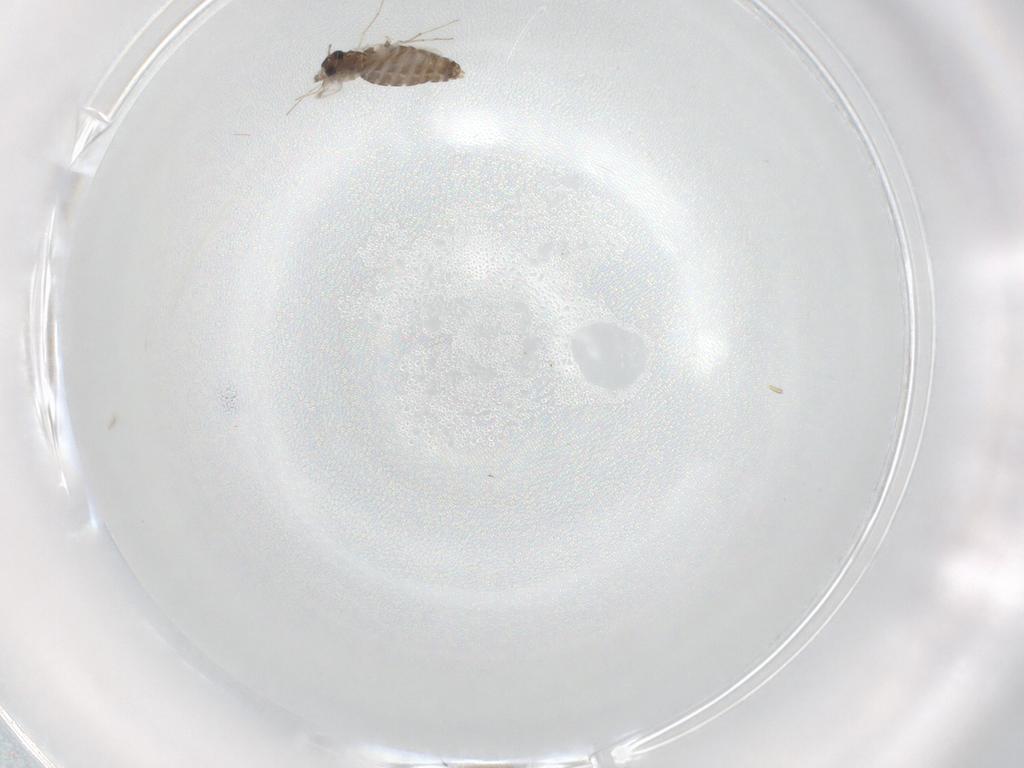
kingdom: Animalia
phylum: Arthropoda
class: Insecta
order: Diptera
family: Chironomidae
